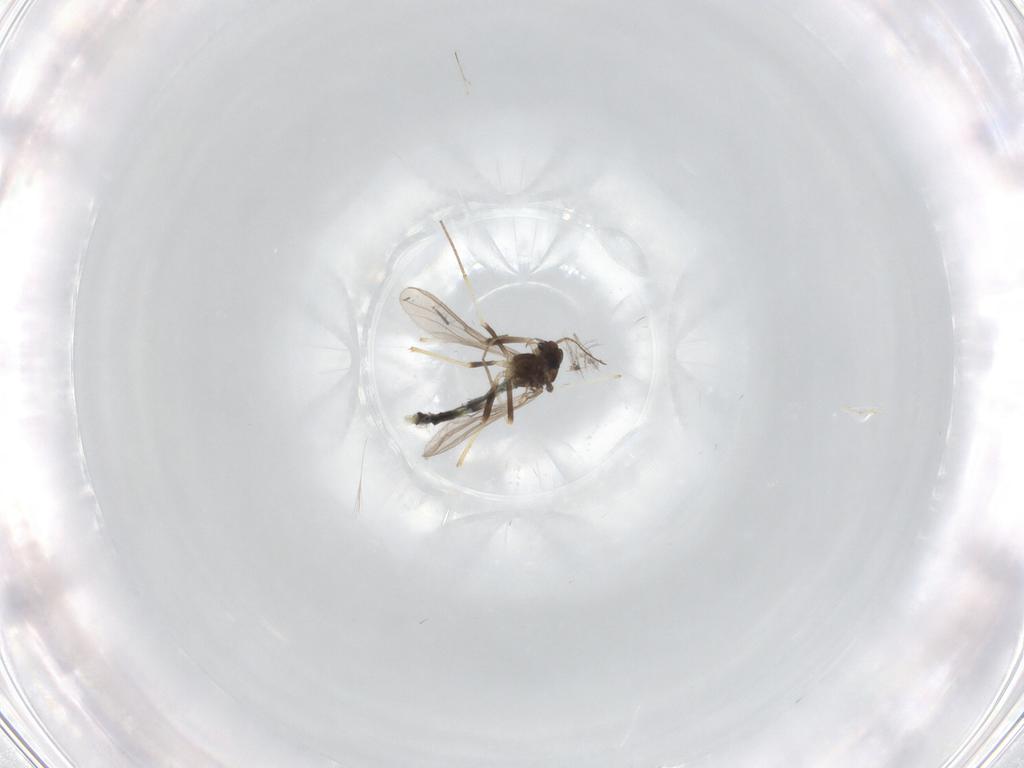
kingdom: Animalia
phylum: Arthropoda
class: Insecta
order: Diptera
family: Chironomidae
